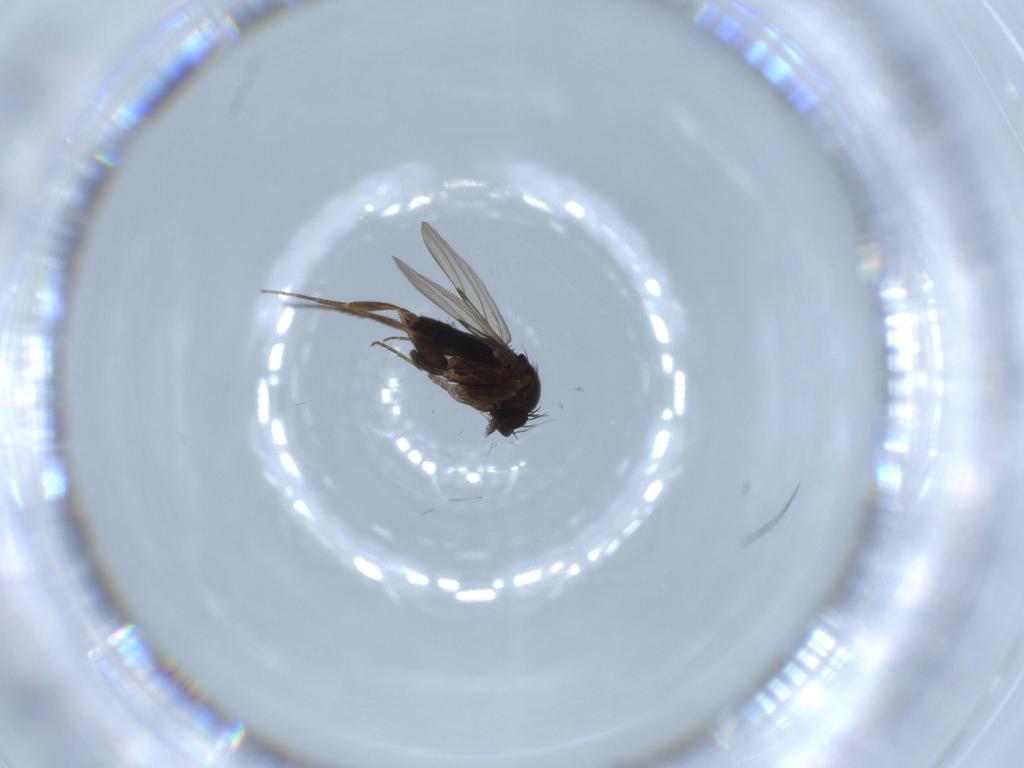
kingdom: Animalia
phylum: Arthropoda
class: Insecta
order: Diptera
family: Phoridae
